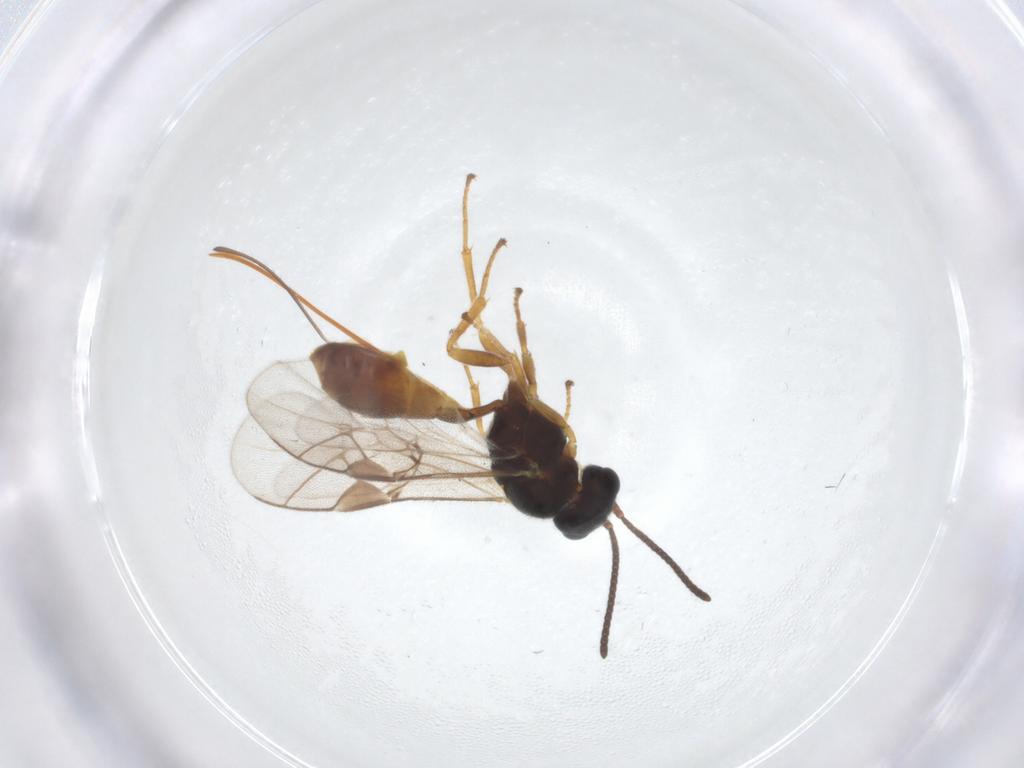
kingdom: Animalia
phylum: Arthropoda
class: Insecta
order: Hymenoptera
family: Ichneumonidae
